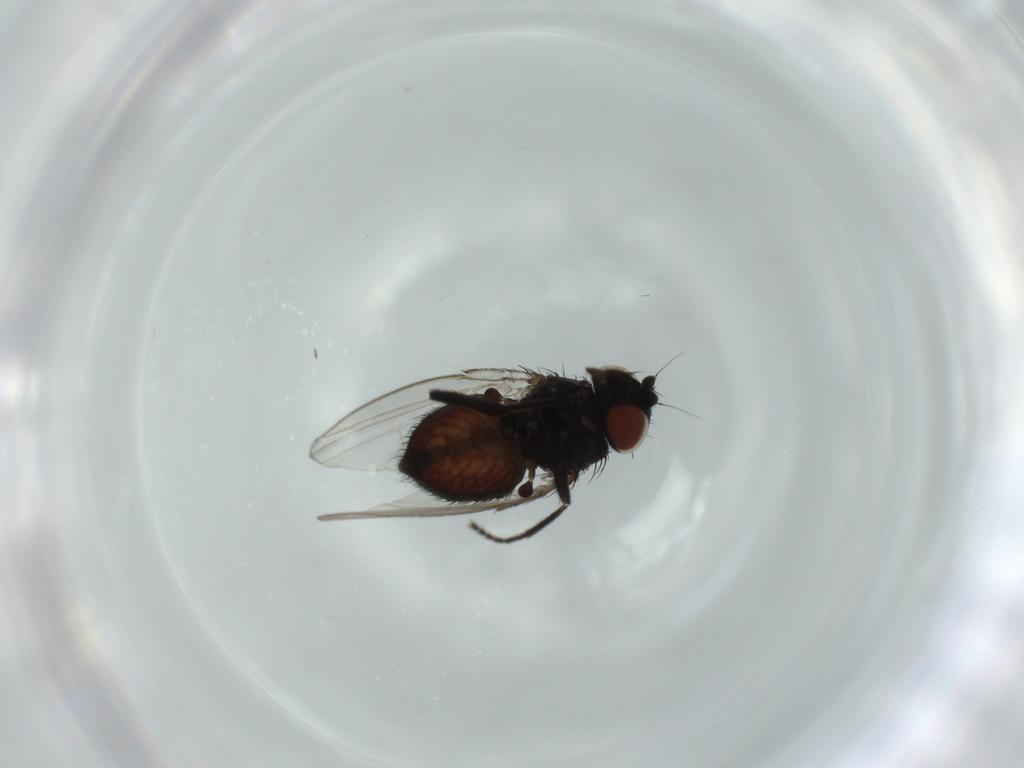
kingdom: Animalia
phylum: Arthropoda
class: Insecta
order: Diptera
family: Milichiidae
